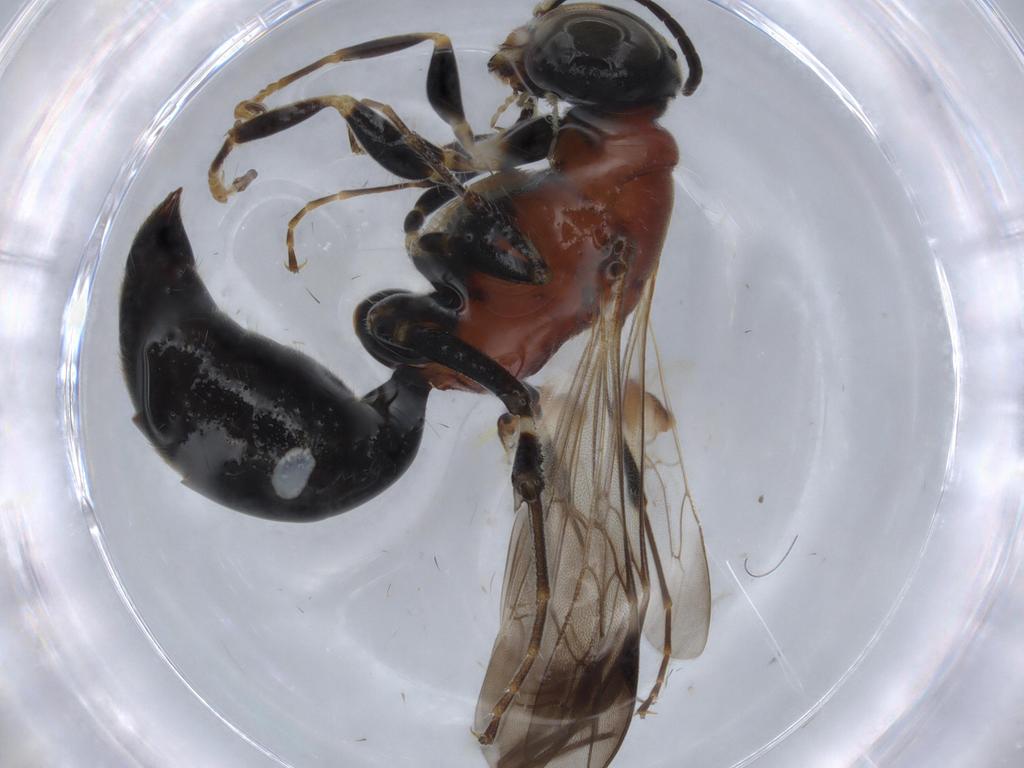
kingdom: Animalia
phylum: Arthropoda
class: Insecta
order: Hymenoptera
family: Bembicidae
